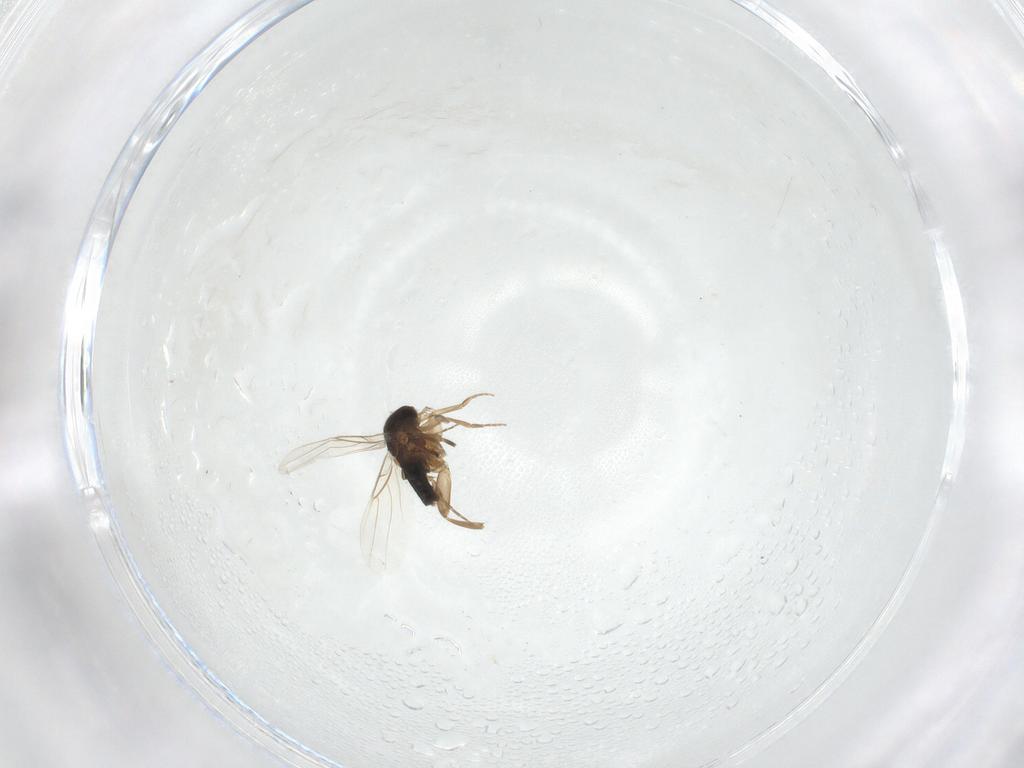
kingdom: Animalia
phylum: Arthropoda
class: Insecta
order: Diptera
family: Phoridae
